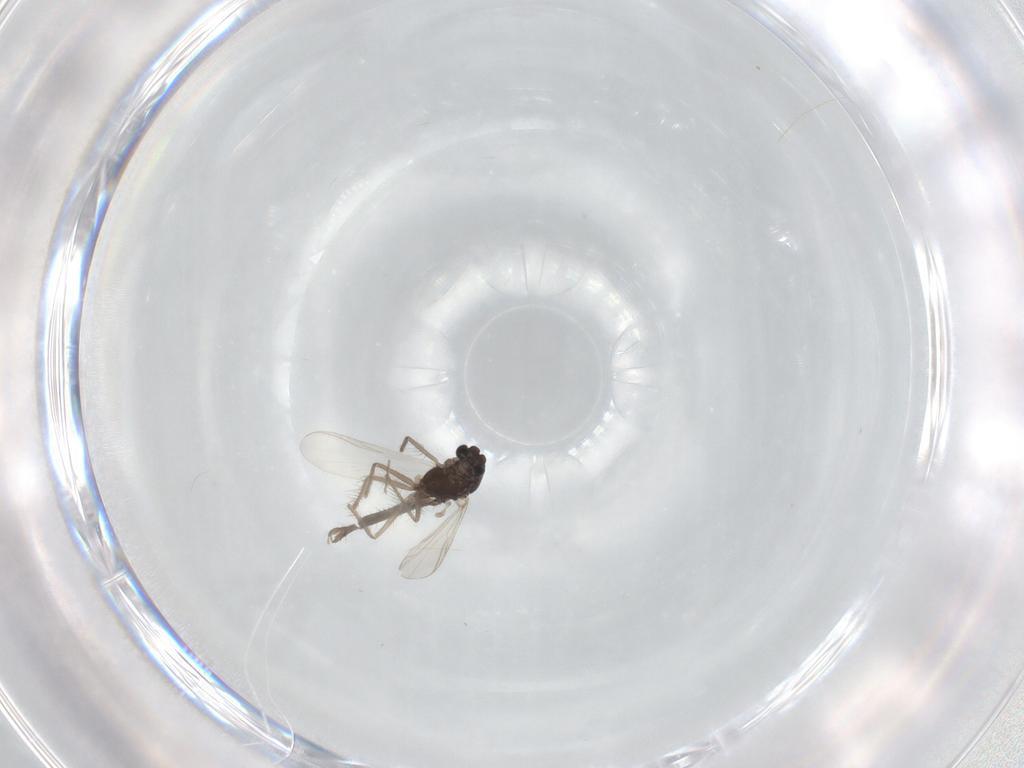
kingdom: Animalia
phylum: Arthropoda
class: Insecta
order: Diptera
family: Chironomidae
